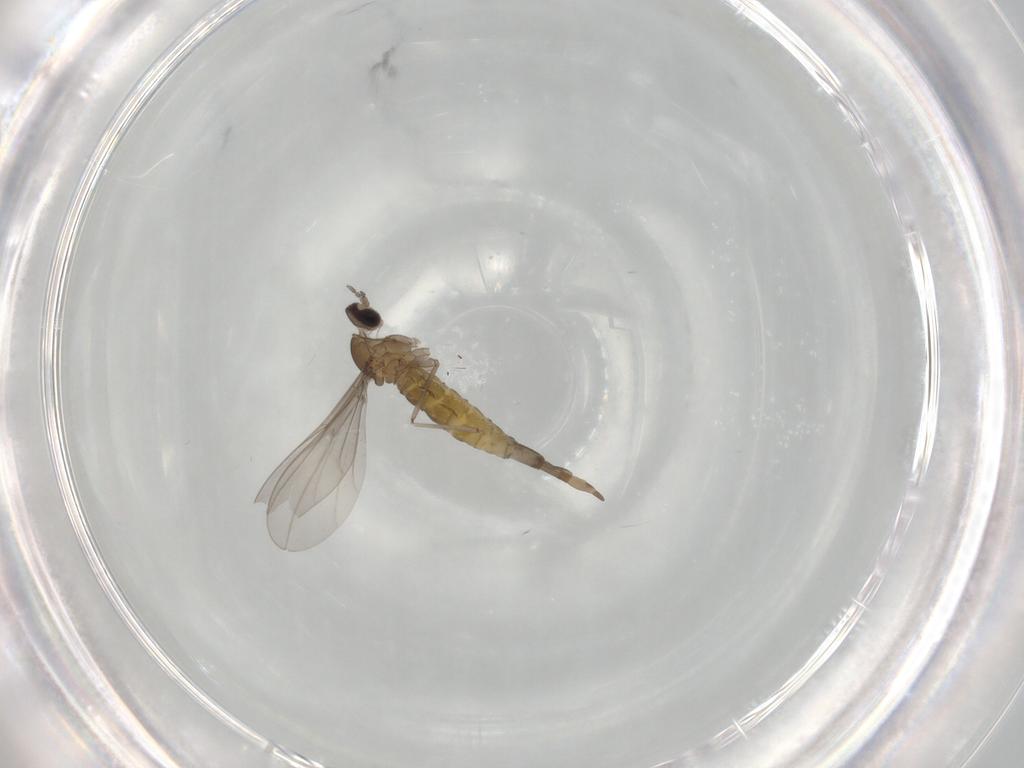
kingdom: Animalia
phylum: Arthropoda
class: Insecta
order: Diptera
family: Cecidomyiidae
